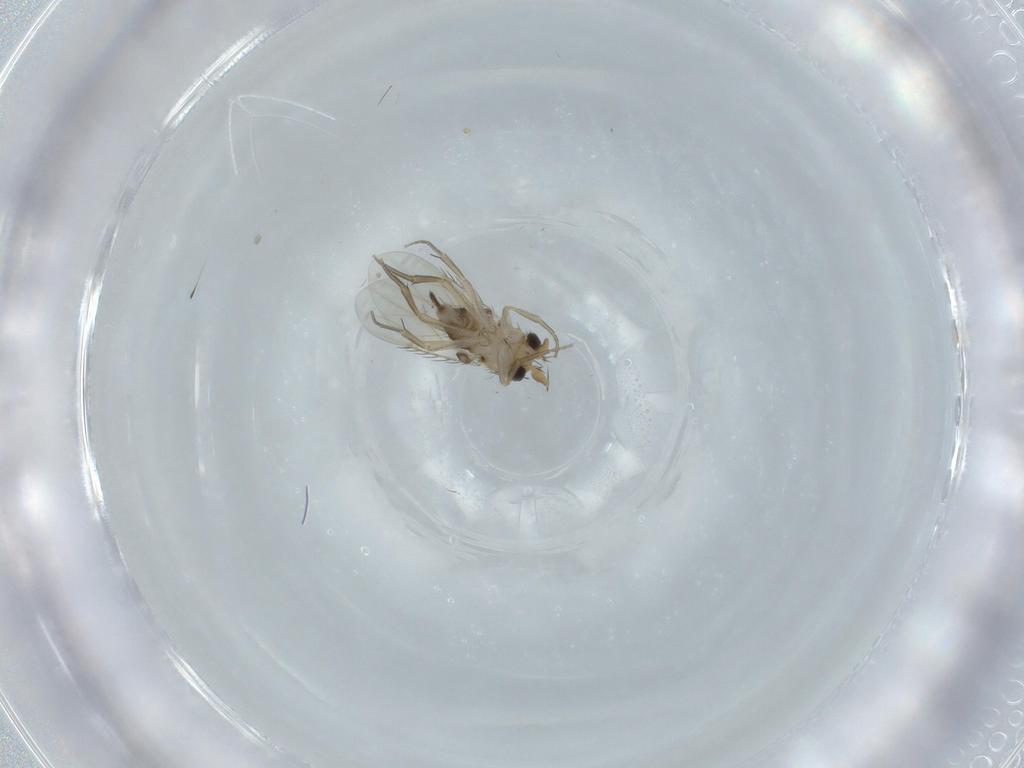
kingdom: Animalia
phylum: Arthropoda
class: Insecta
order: Diptera
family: Phoridae
